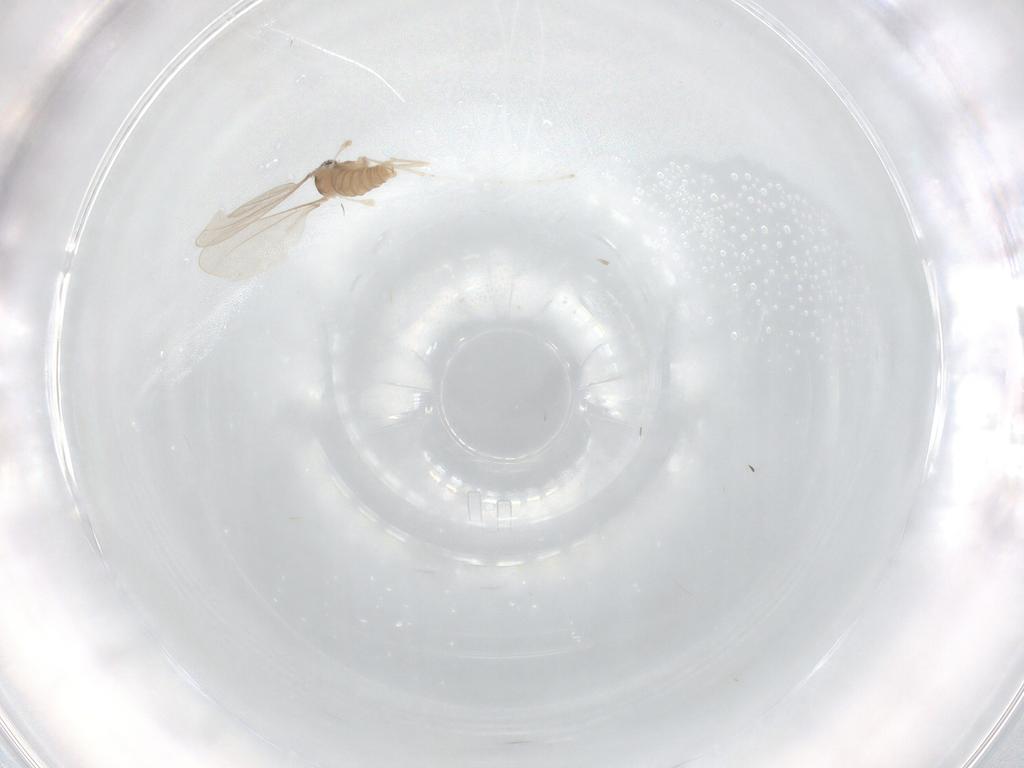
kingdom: Animalia
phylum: Arthropoda
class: Insecta
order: Diptera
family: Cecidomyiidae
